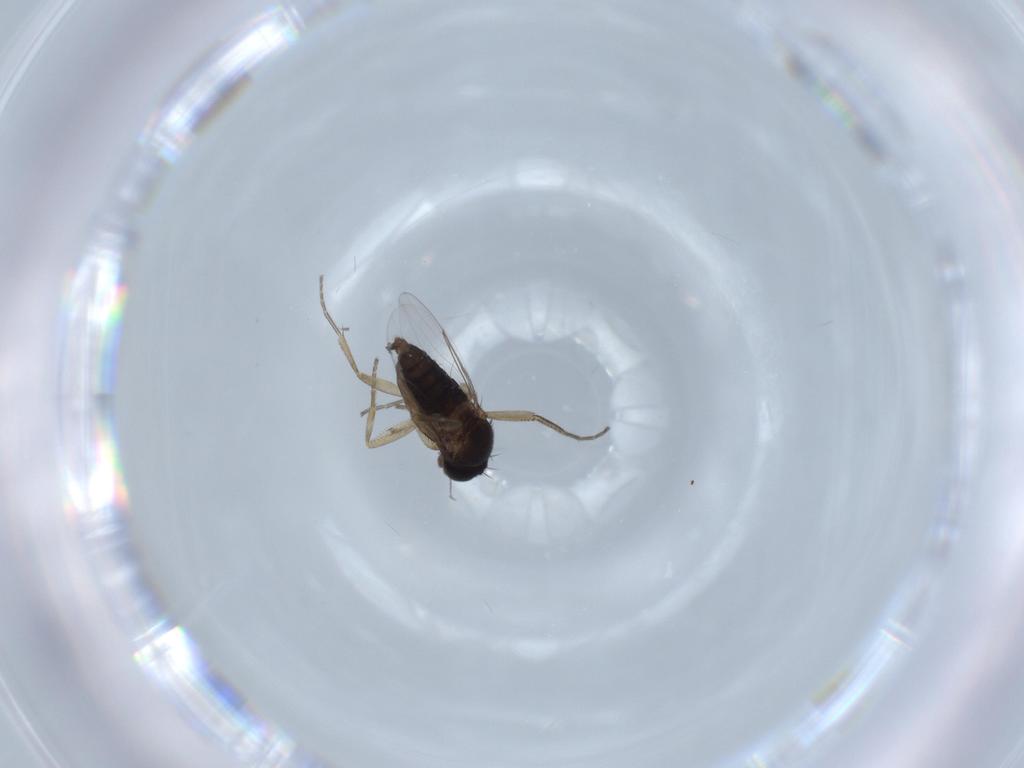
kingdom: Animalia
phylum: Arthropoda
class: Insecta
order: Diptera
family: Phoridae
